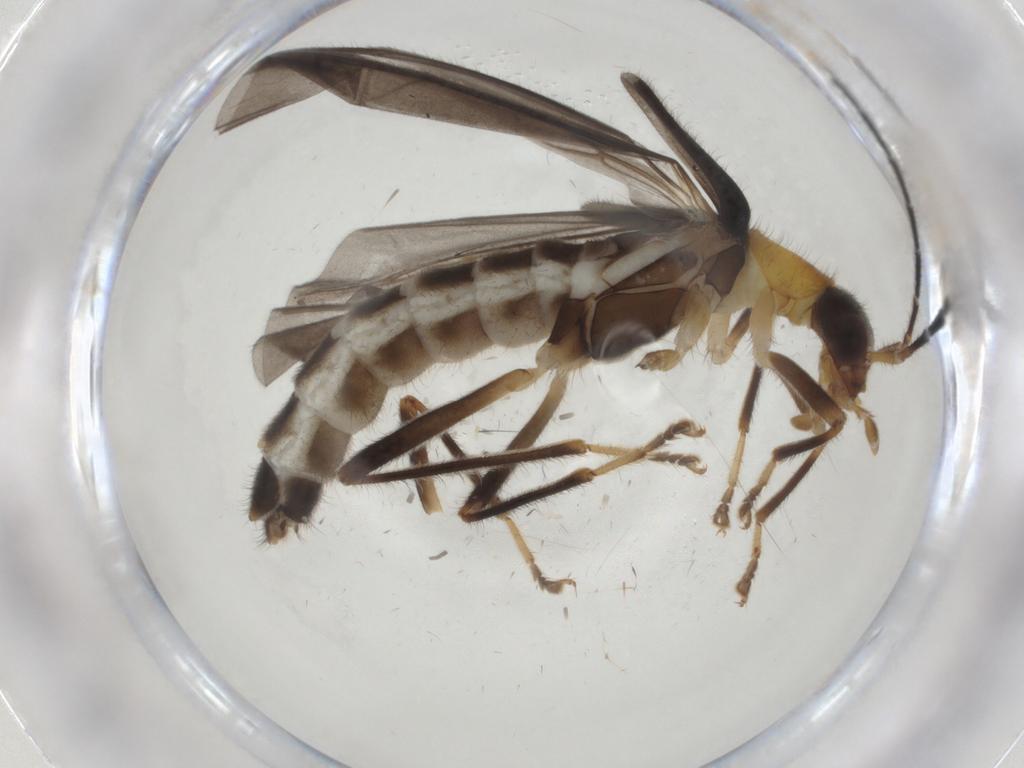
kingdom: Animalia
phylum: Arthropoda
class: Insecta
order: Coleoptera
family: Cantharidae
